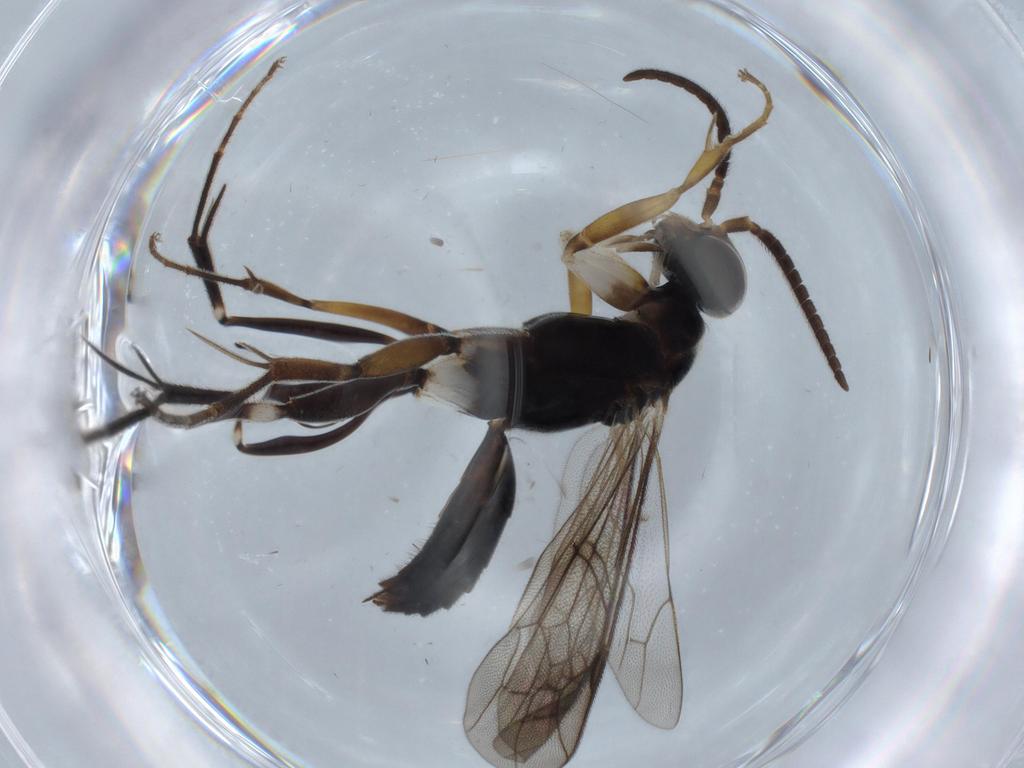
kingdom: Animalia
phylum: Arthropoda
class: Insecta
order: Hymenoptera
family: Pompilidae
